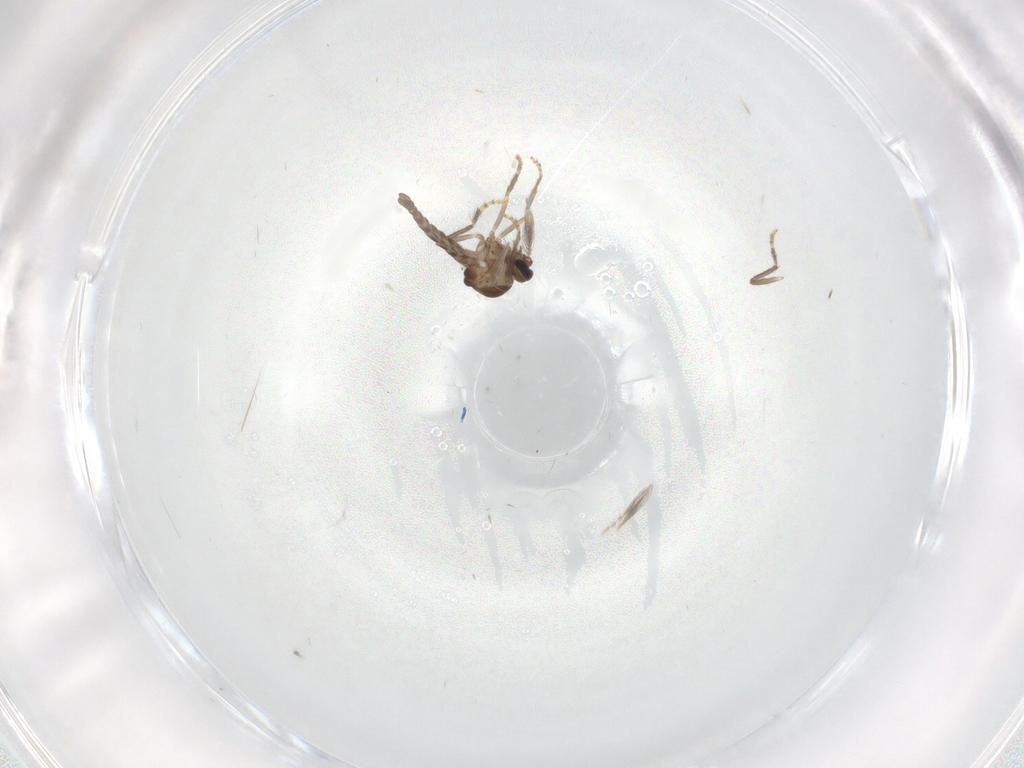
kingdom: Animalia
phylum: Arthropoda
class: Insecta
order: Diptera
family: Ceratopogonidae
